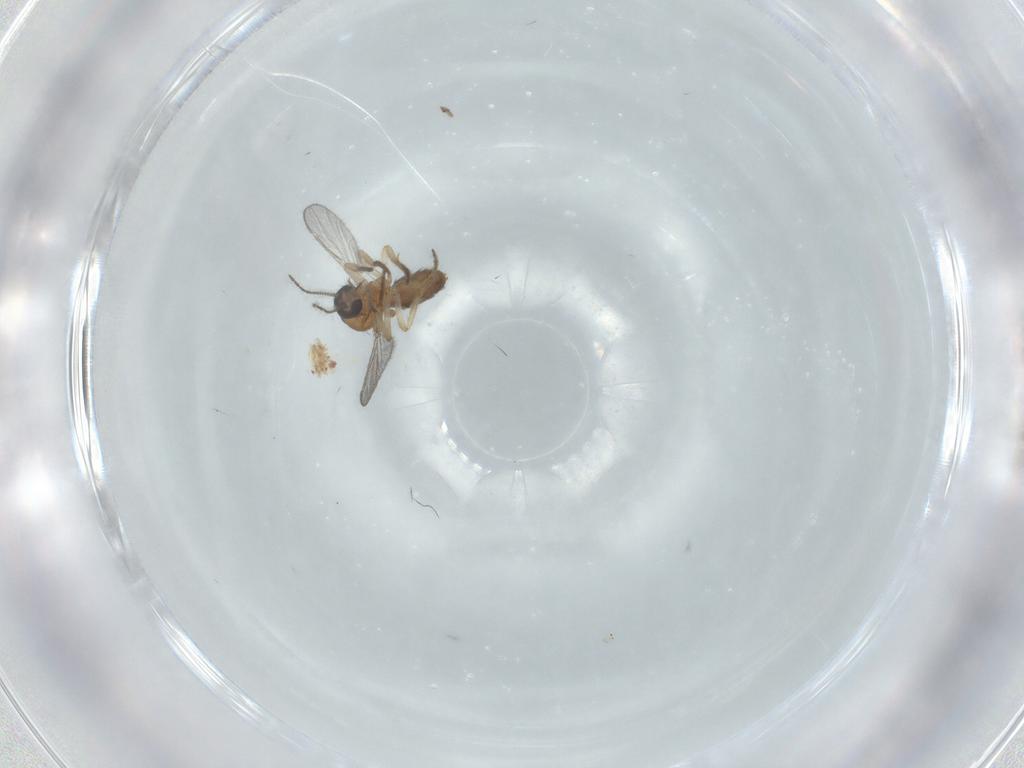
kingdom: Animalia
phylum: Arthropoda
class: Insecta
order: Diptera
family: Ceratopogonidae
